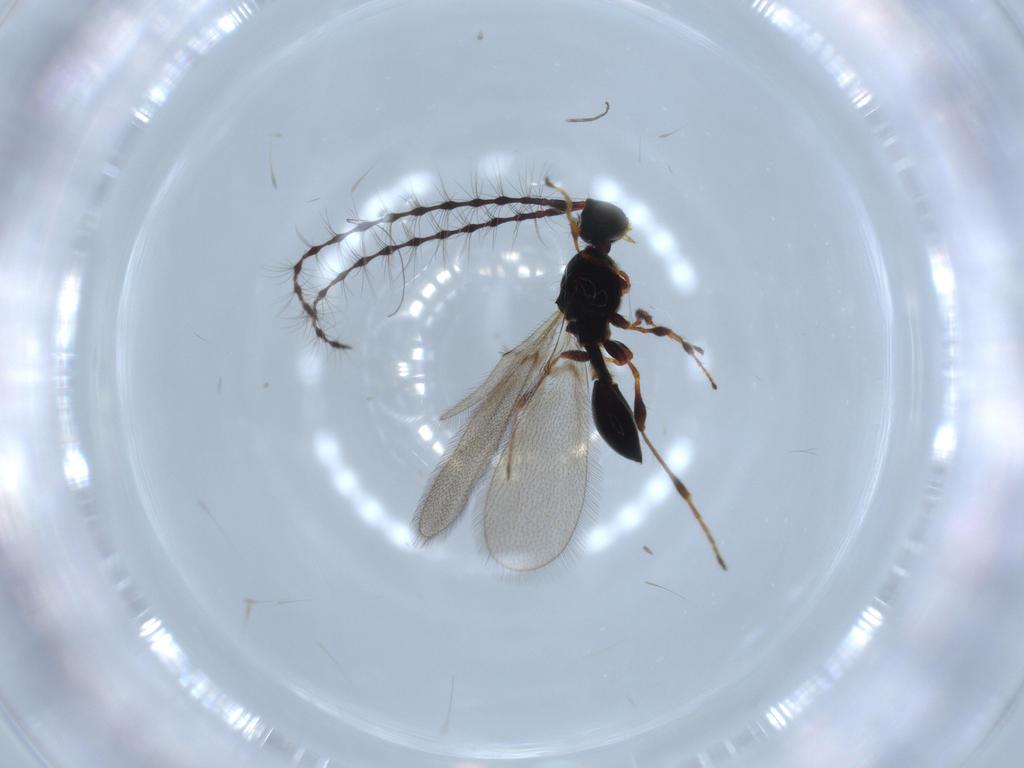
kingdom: Animalia
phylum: Arthropoda
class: Insecta
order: Hymenoptera
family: Diapriidae
